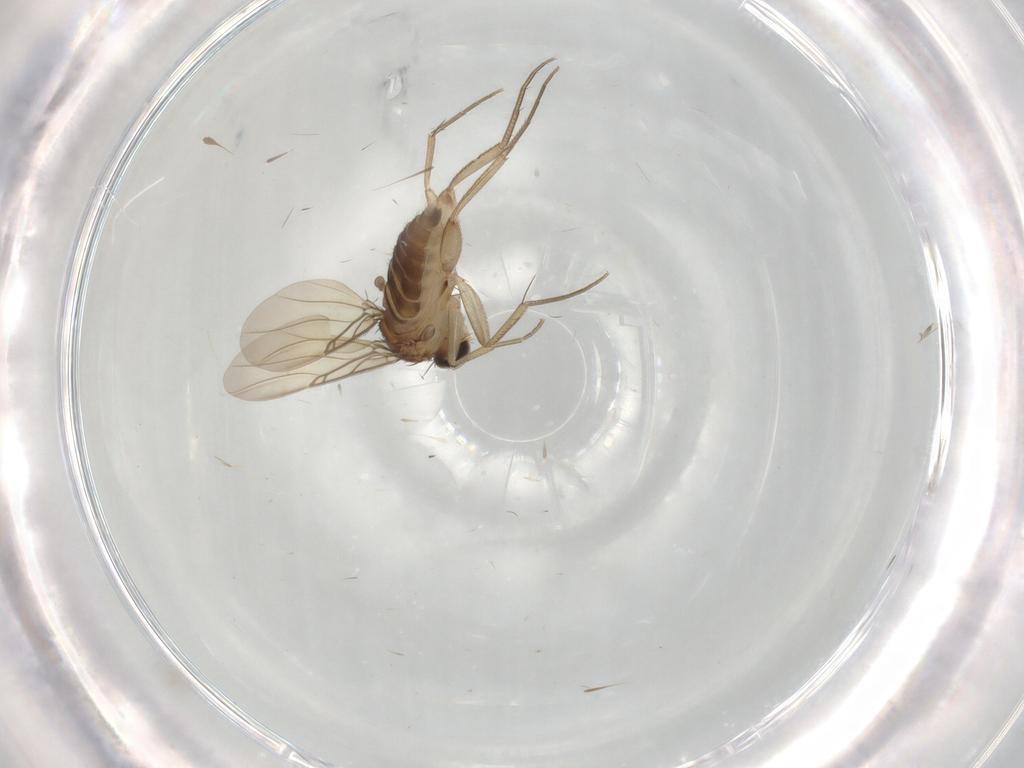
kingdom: Animalia
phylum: Arthropoda
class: Insecta
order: Diptera
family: Phoridae
